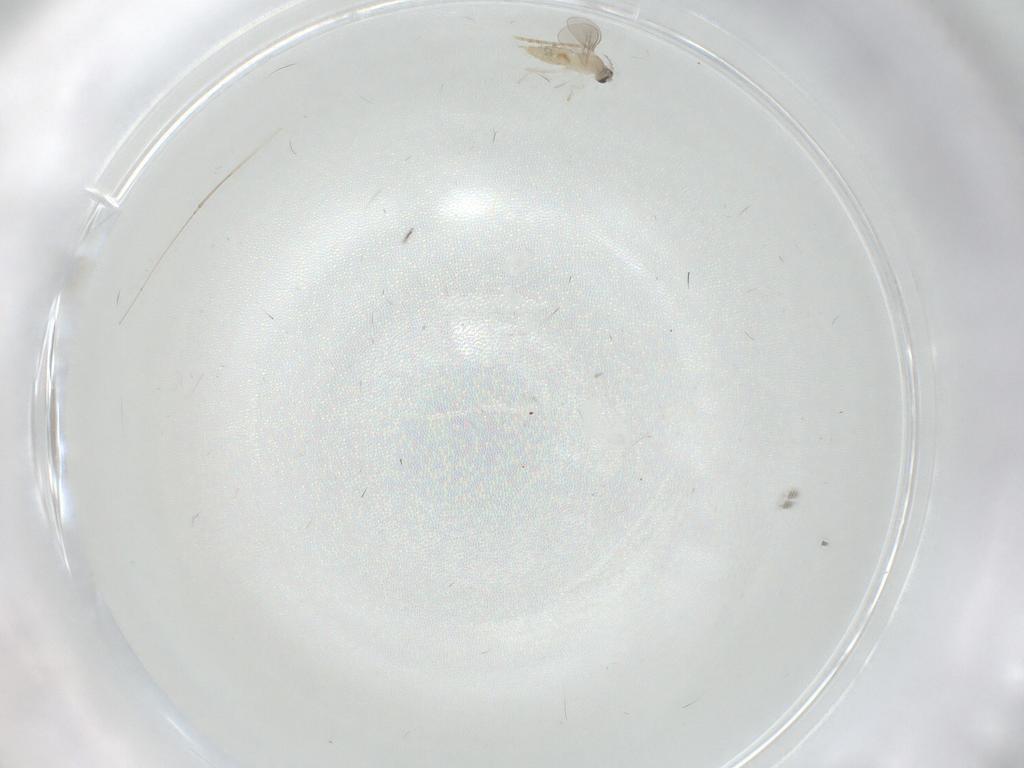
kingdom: Animalia
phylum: Arthropoda
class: Insecta
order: Diptera
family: Cecidomyiidae
